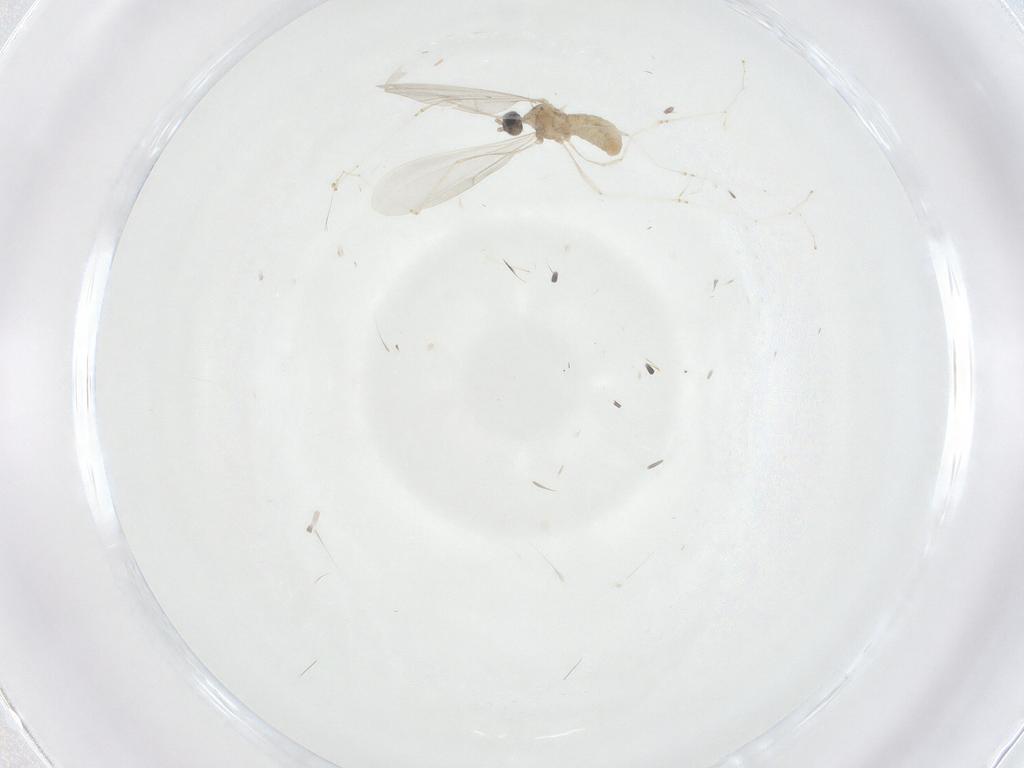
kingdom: Animalia
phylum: Arthropoda
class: Insecta
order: Diptera
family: Cecidomyiidae
